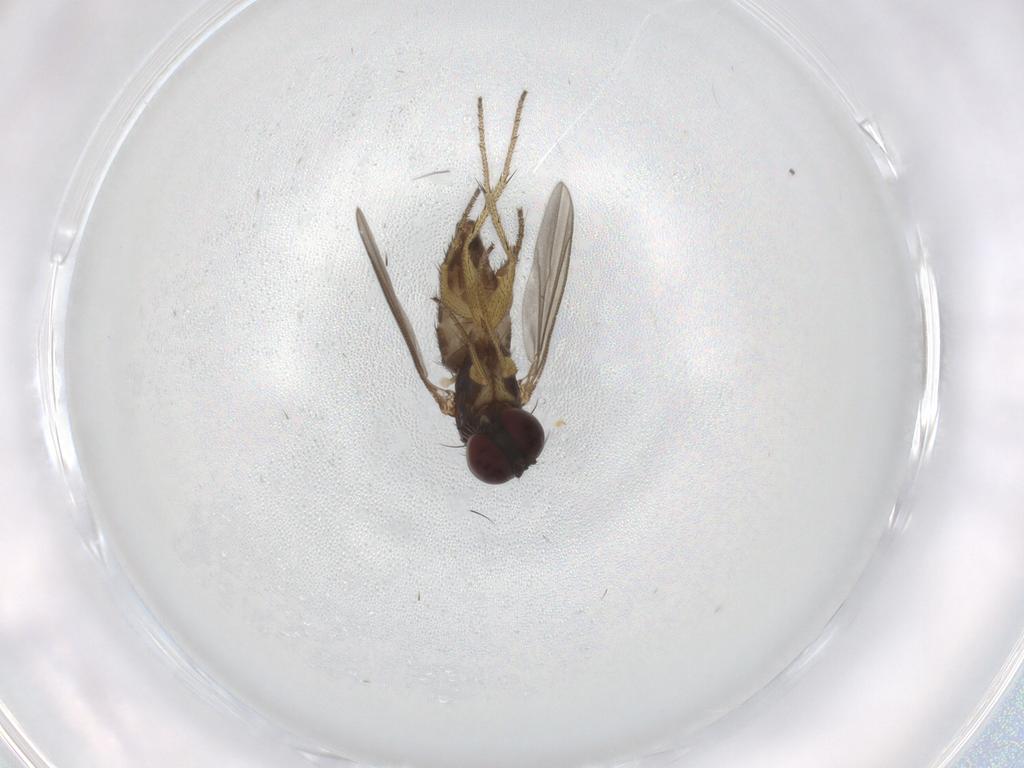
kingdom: Animalia
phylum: Arthropoda
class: Insecta
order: Diptera
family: Dolichopodidae
